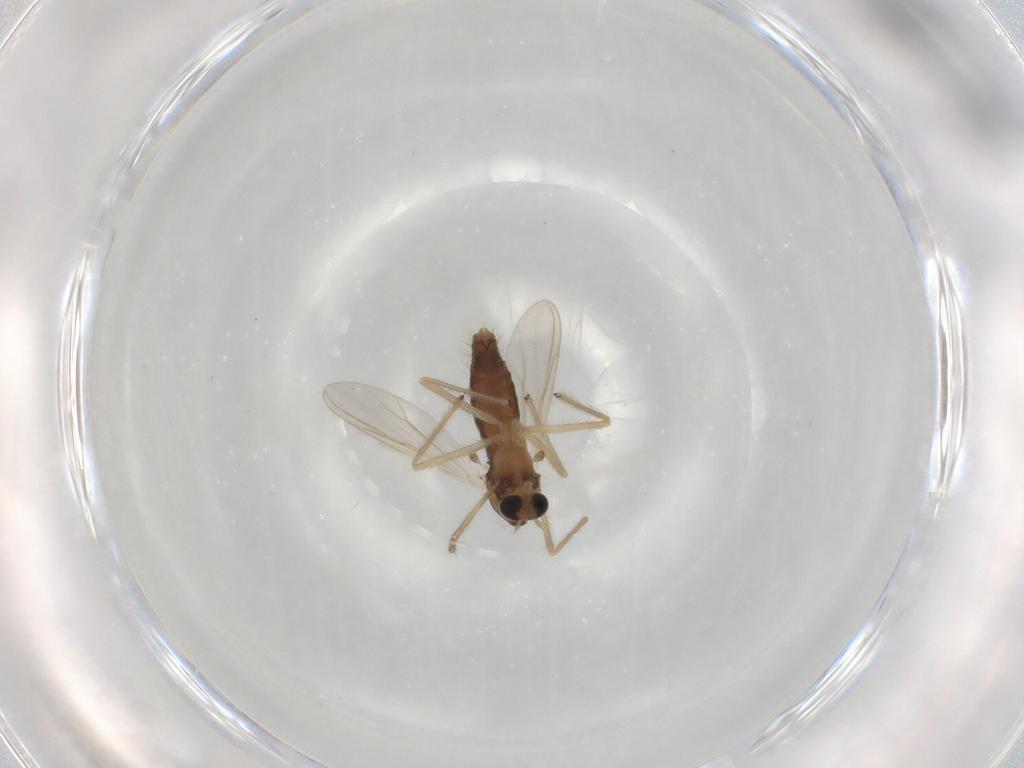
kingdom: Animalia
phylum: Arthropoda
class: Insecta
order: Diptera
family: Chironomidae
